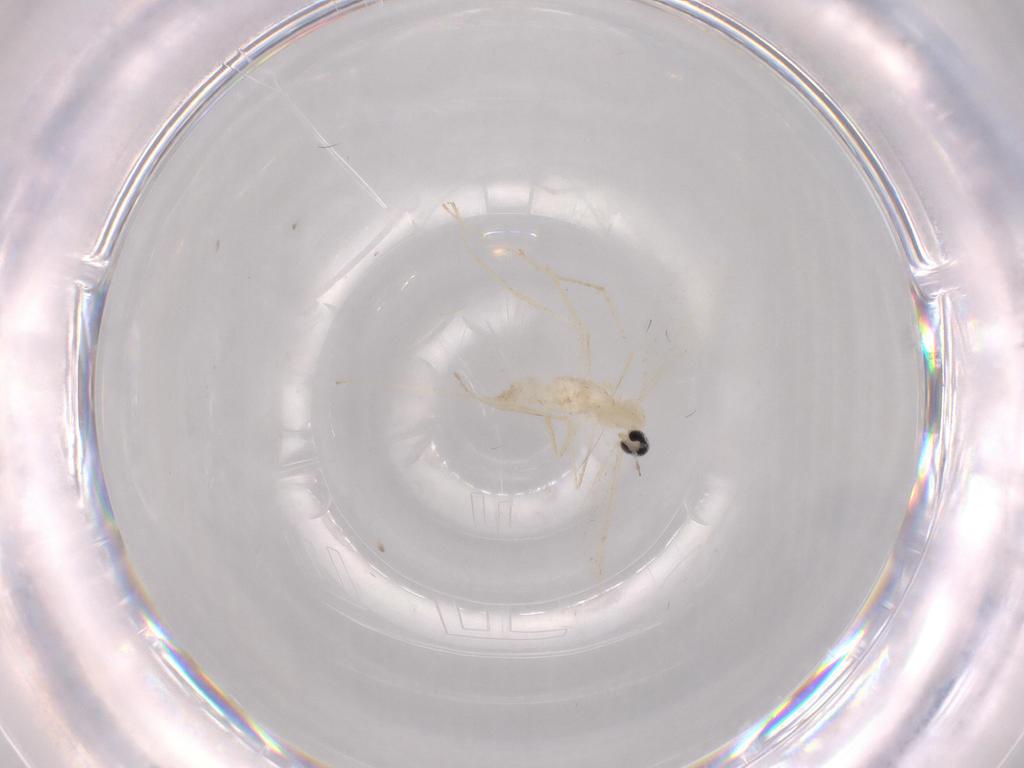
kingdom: Animalia
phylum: Arthropoda
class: Insecta
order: Diptera
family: Cecidomyiidae
